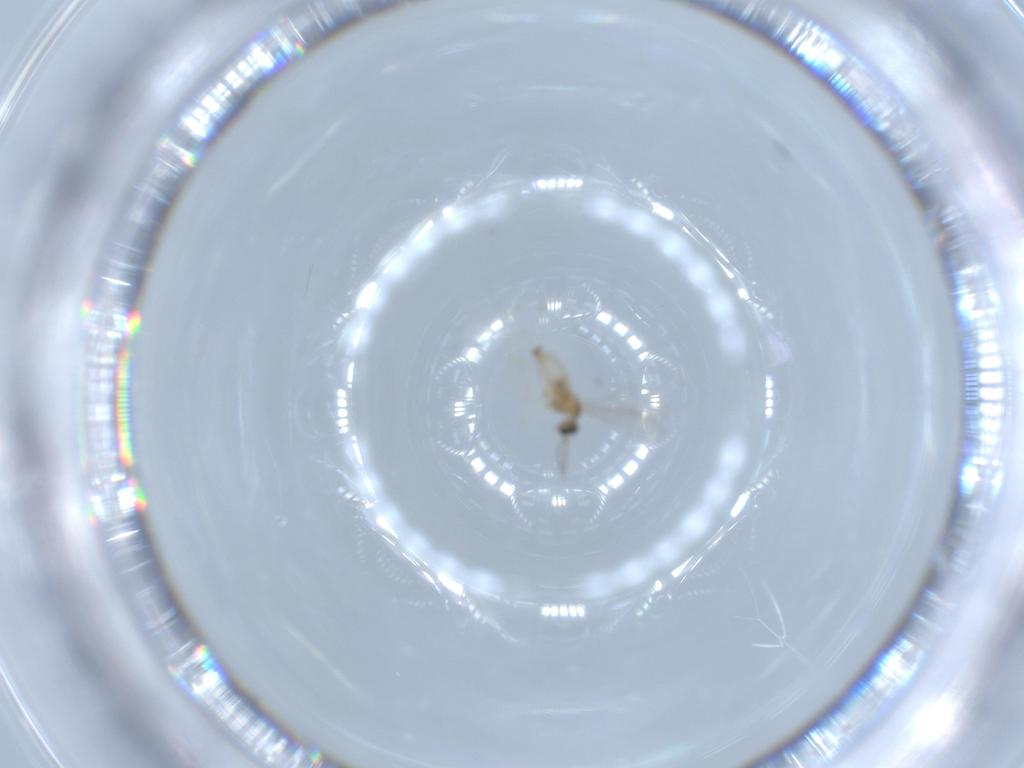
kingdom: Animalia
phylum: Arthropoda
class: Insecta
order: Diptera
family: Cecidomyiidae
